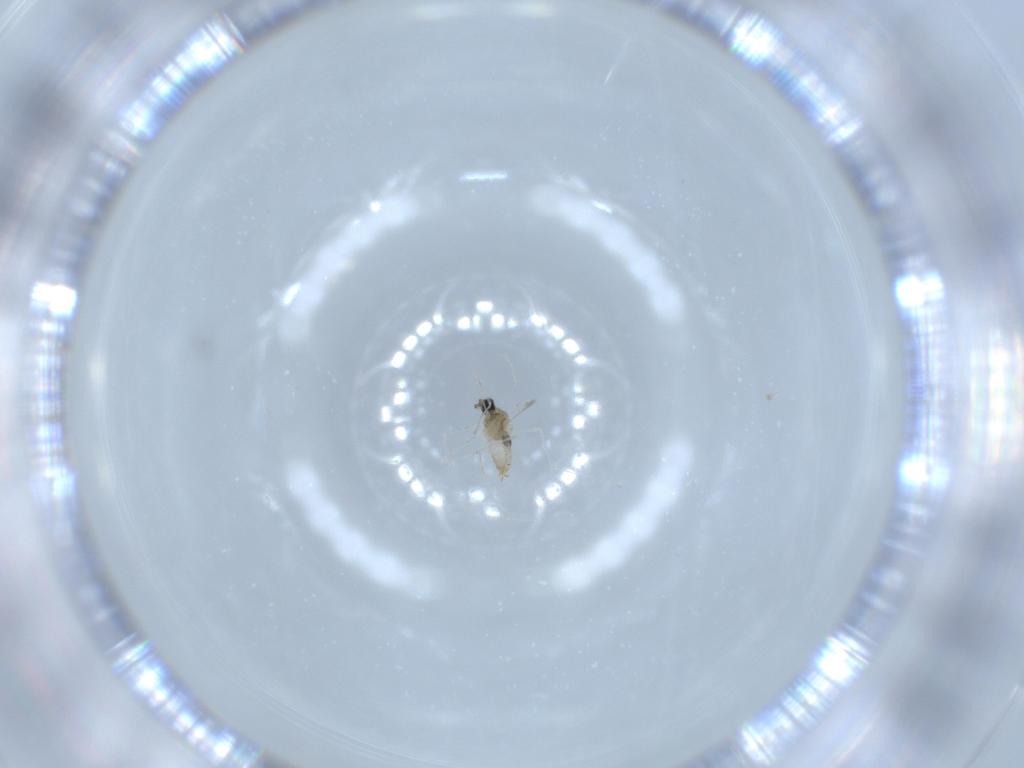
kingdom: Animalia
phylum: Arthropoda
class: Insecta
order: Diptera
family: Cecidomyiidae
